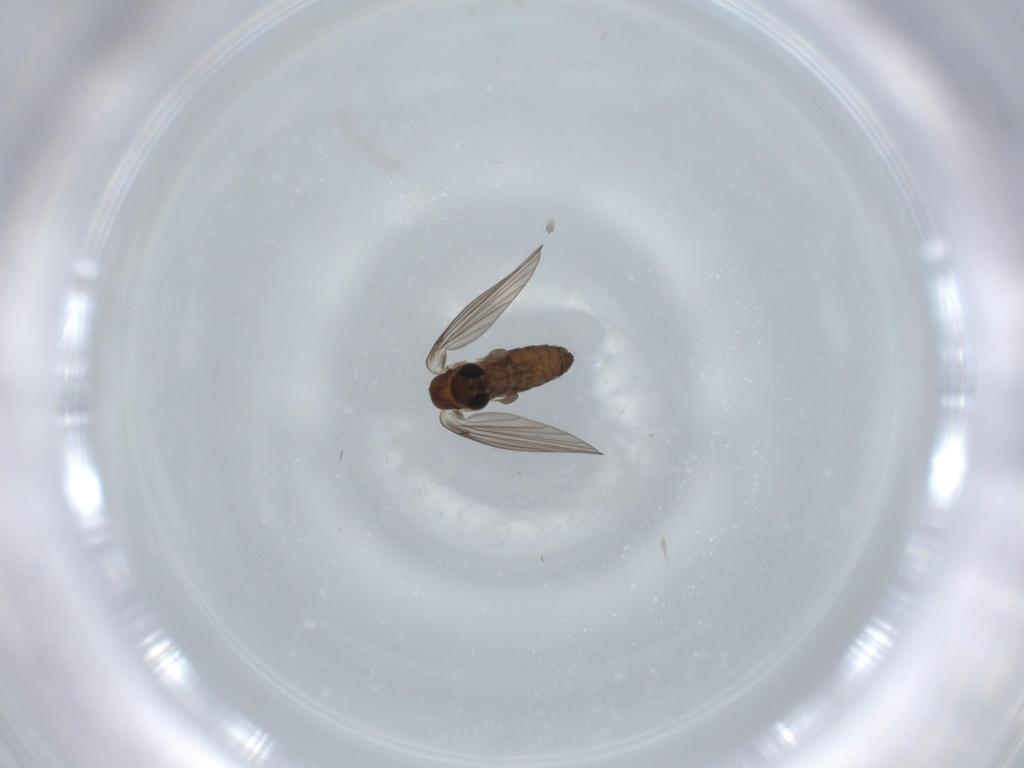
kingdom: Animalia
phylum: Arthropoda
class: Insecta
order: Diptera
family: Psychodidae
